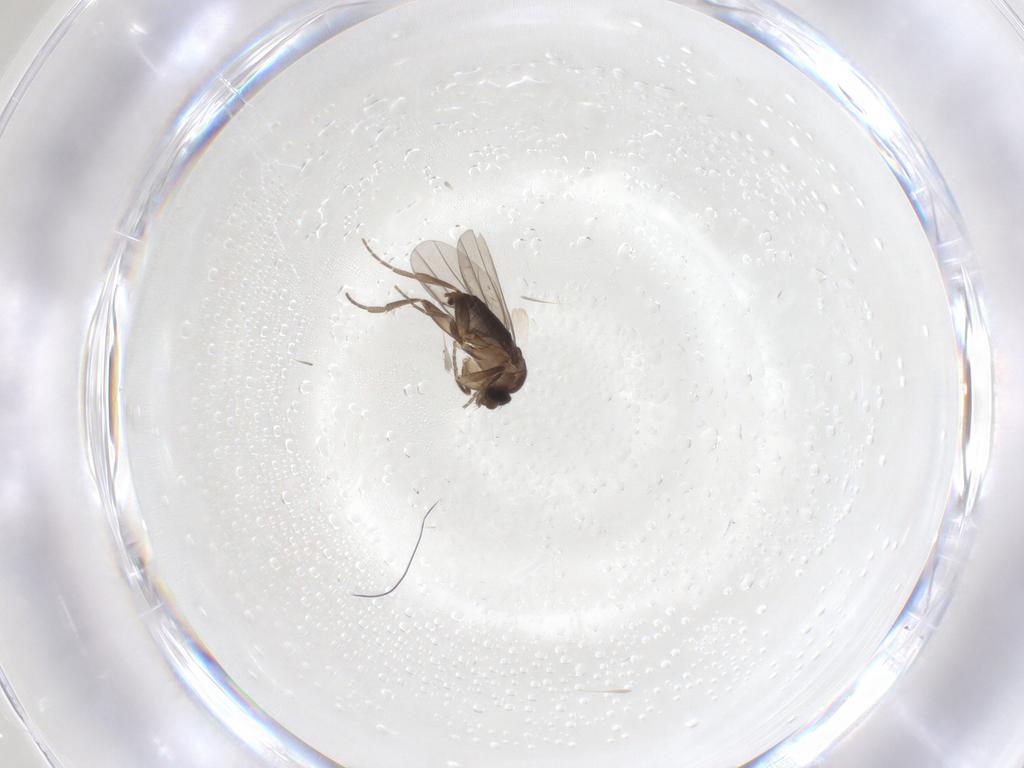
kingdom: Animalia
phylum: Arthropoda
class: Insecta
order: Diptera
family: Phoridae
